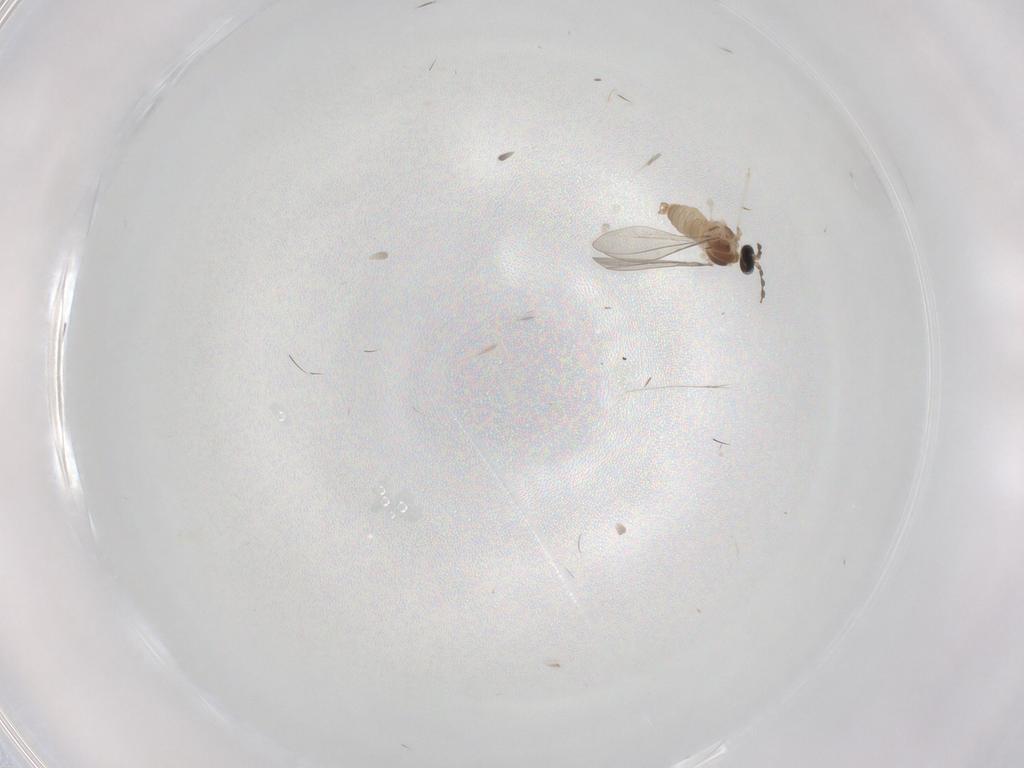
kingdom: Animalia
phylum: Arthropoda
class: Insecta
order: Diptera
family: Cecidomyiidae
